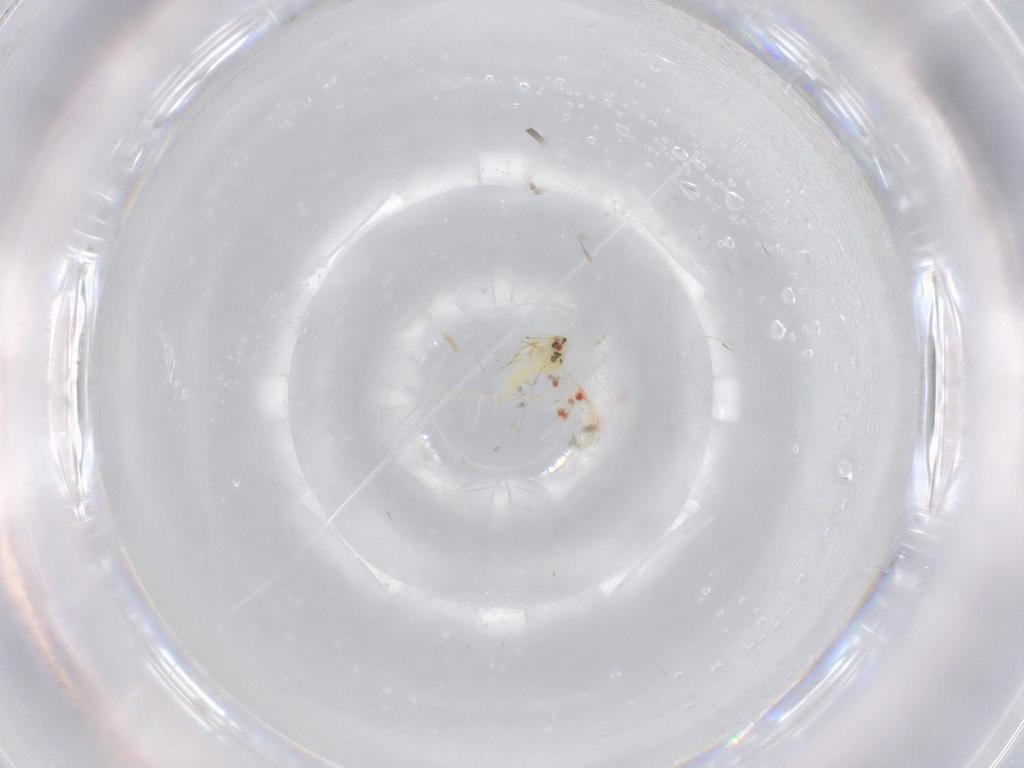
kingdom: Animalia
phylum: Arthropoda
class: Insecta
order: Hemiptera
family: Aleyrodidae
